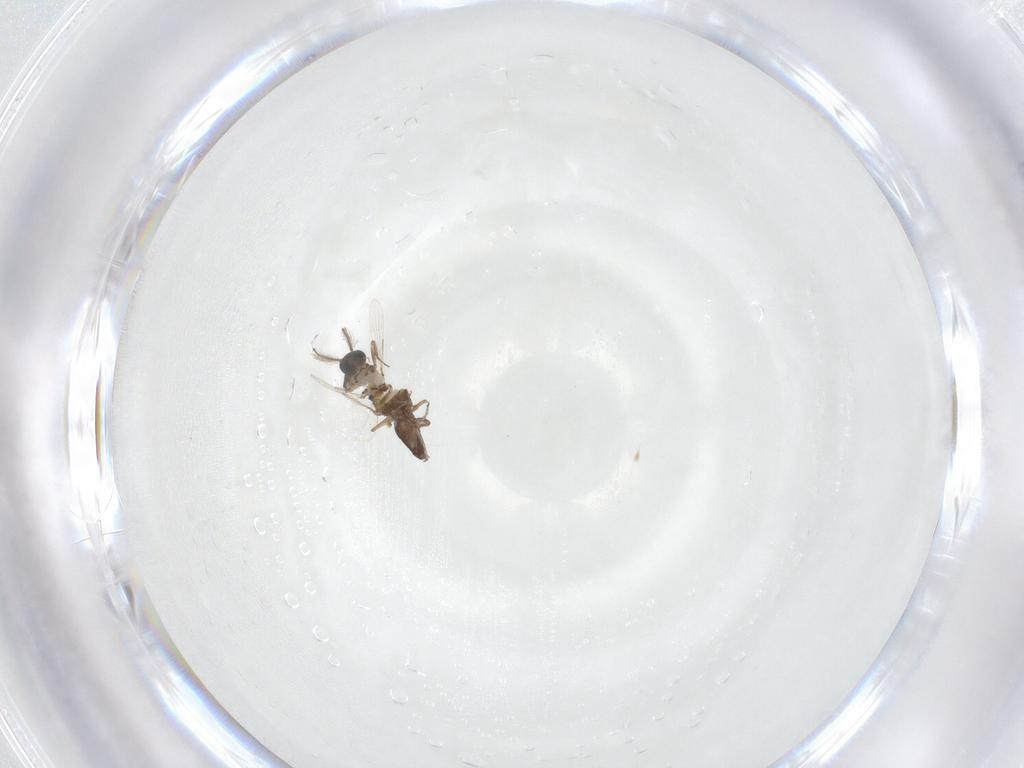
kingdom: Animalia
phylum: Arthropoda
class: Insecta
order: Diptera
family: Ceratopogonidae
